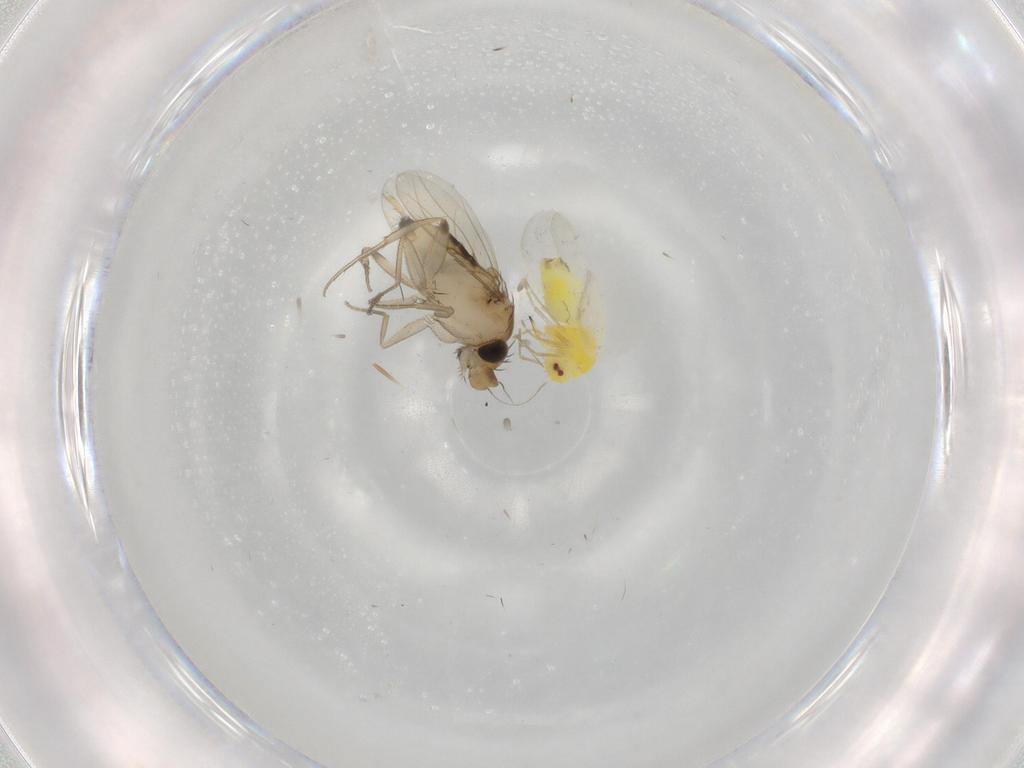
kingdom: Animalia
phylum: Arthropoda
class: Insecta
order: Diptera
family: Phoridae
